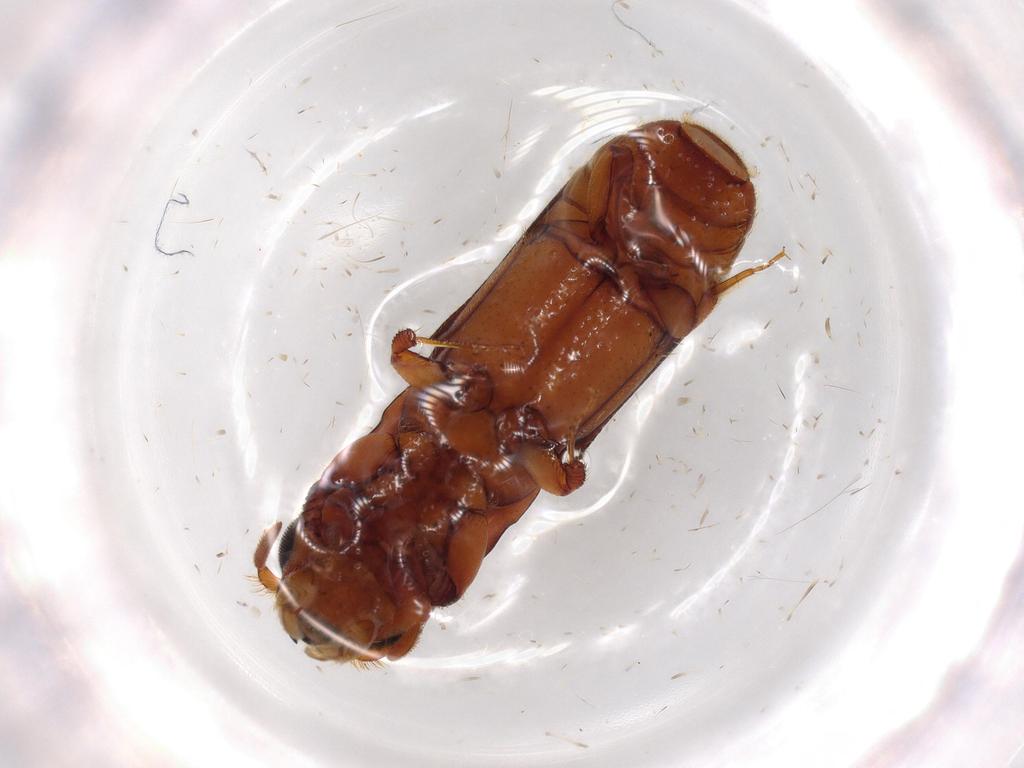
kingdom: Animalia
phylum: Arthropoda
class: Insecta
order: Coleoptera
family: Curculionidae
